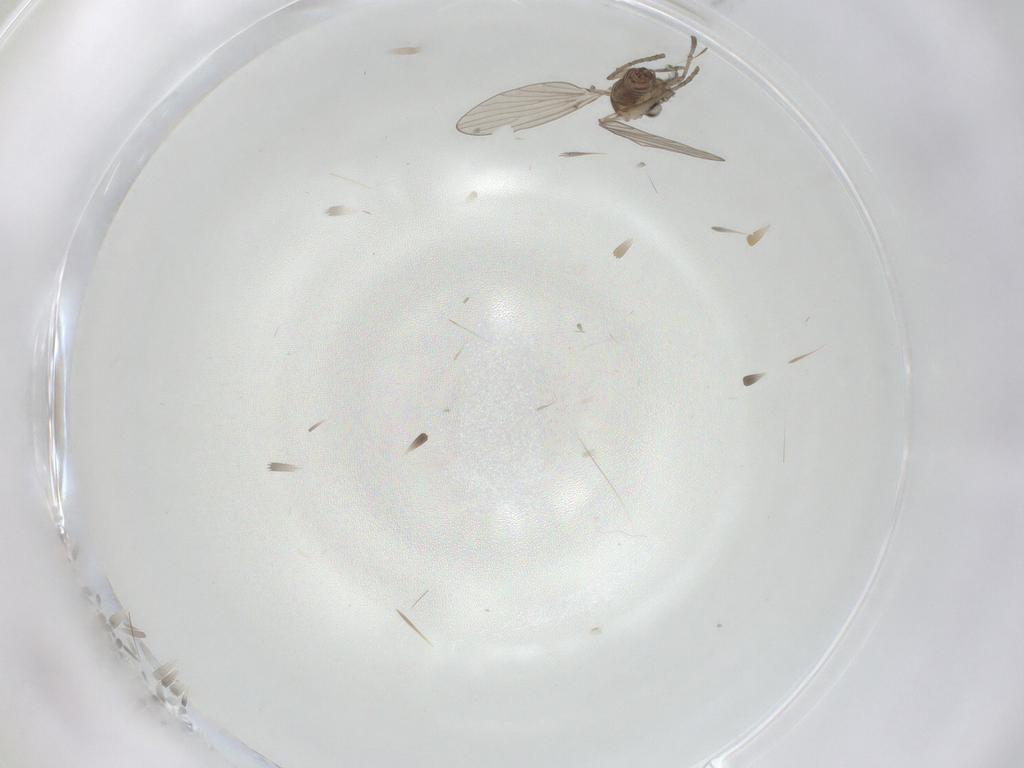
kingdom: Animalia
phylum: Arthropoda
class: Insecta
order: Diptera
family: Psychodidae
